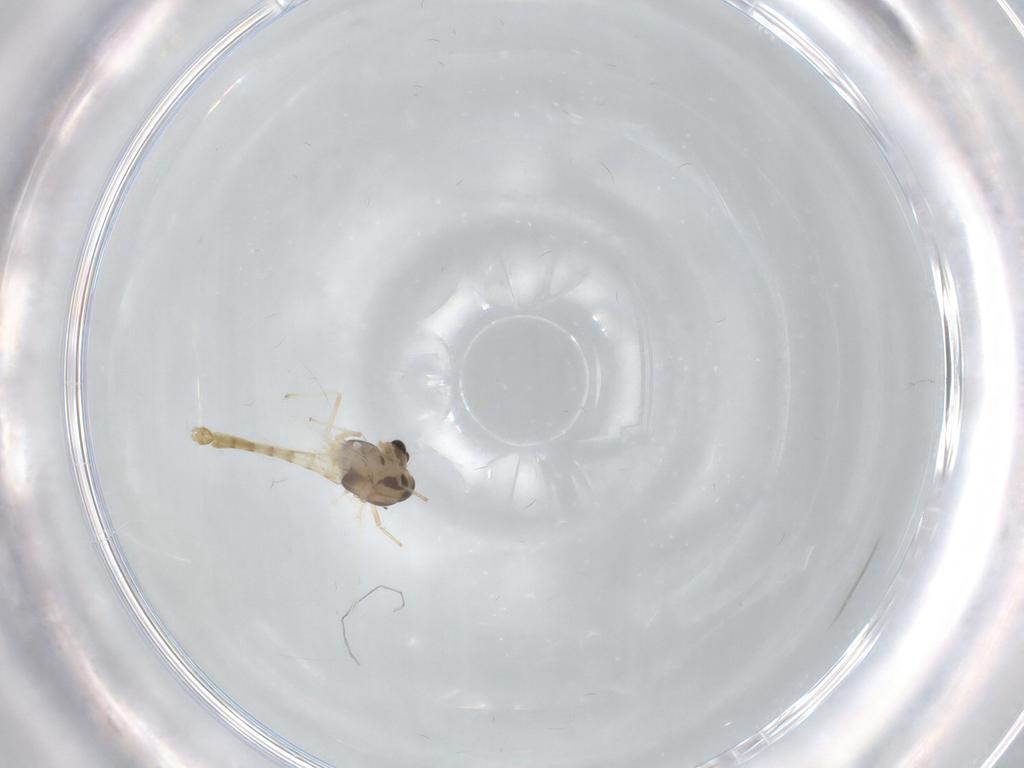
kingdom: Animalia
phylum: Arthropoda
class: Insecta
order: Diptera
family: Chironomidae
